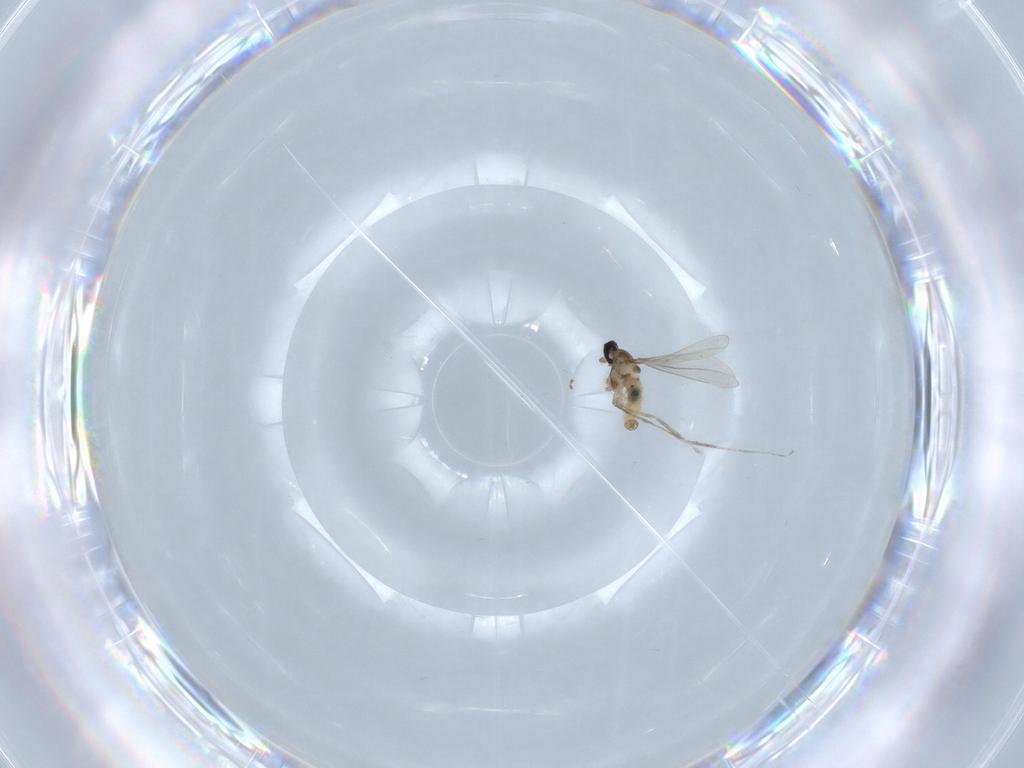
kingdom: Animalia
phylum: Arthropoda
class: Insecta
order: Diptera
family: Cecidomyiidae
